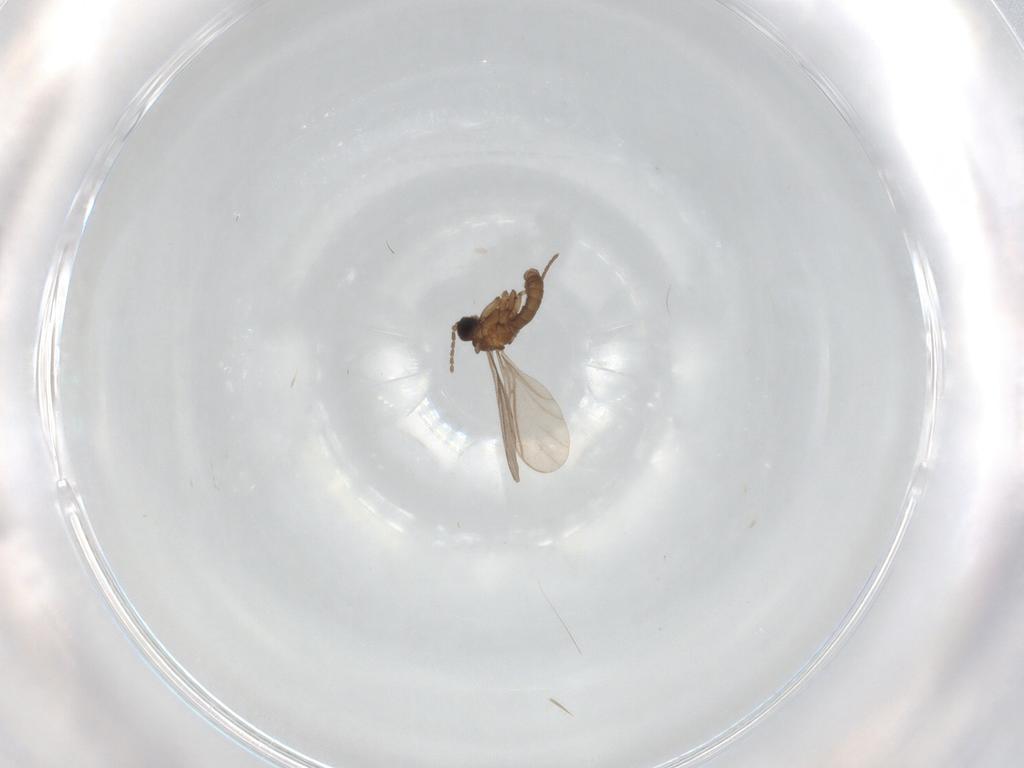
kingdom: Animalia
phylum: Arthropoda
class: Insecta
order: Diptera
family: Sciaridae
